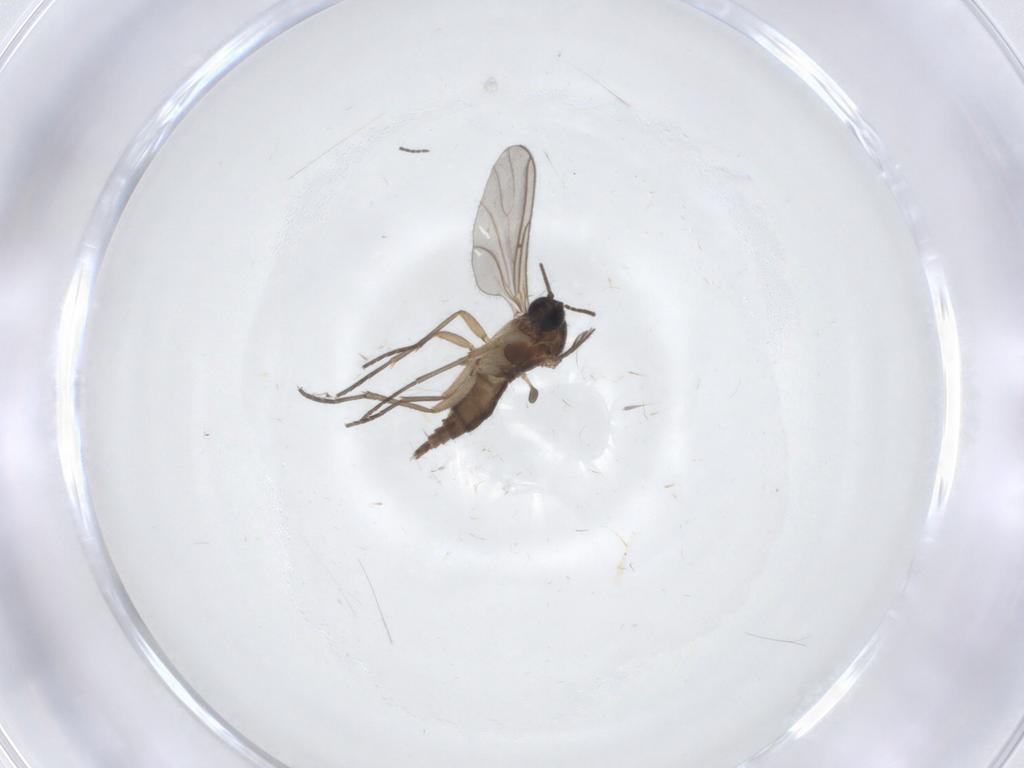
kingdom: Animalia
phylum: Arthropoda
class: Insecta
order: Diptera
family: Sciaridae
